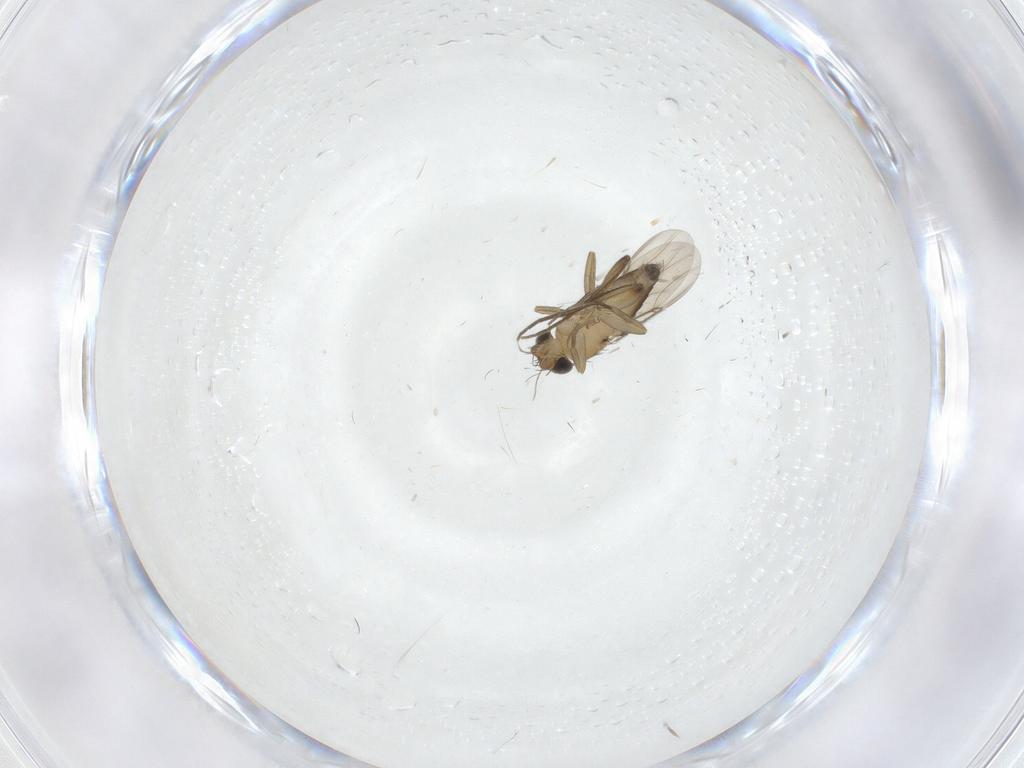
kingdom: Animalia
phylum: Arthropoda
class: Insecta
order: Diptera
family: Phoridae
